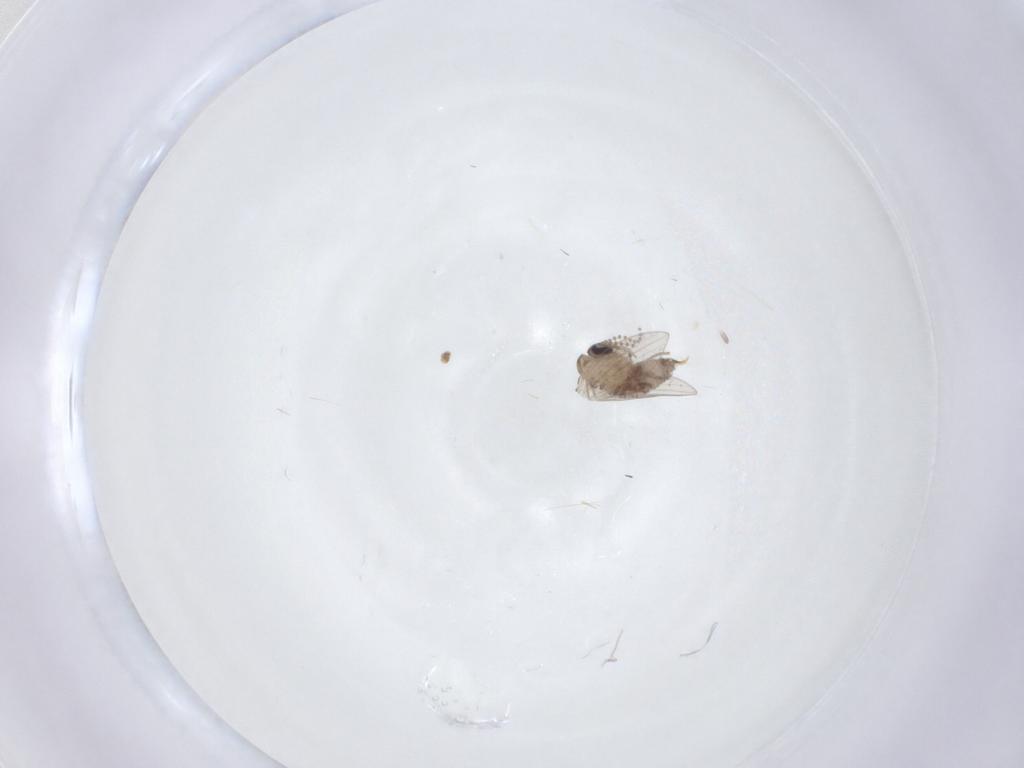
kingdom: Animalia
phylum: Arthropoda
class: Insecta
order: Diptera
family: Psychodidae
